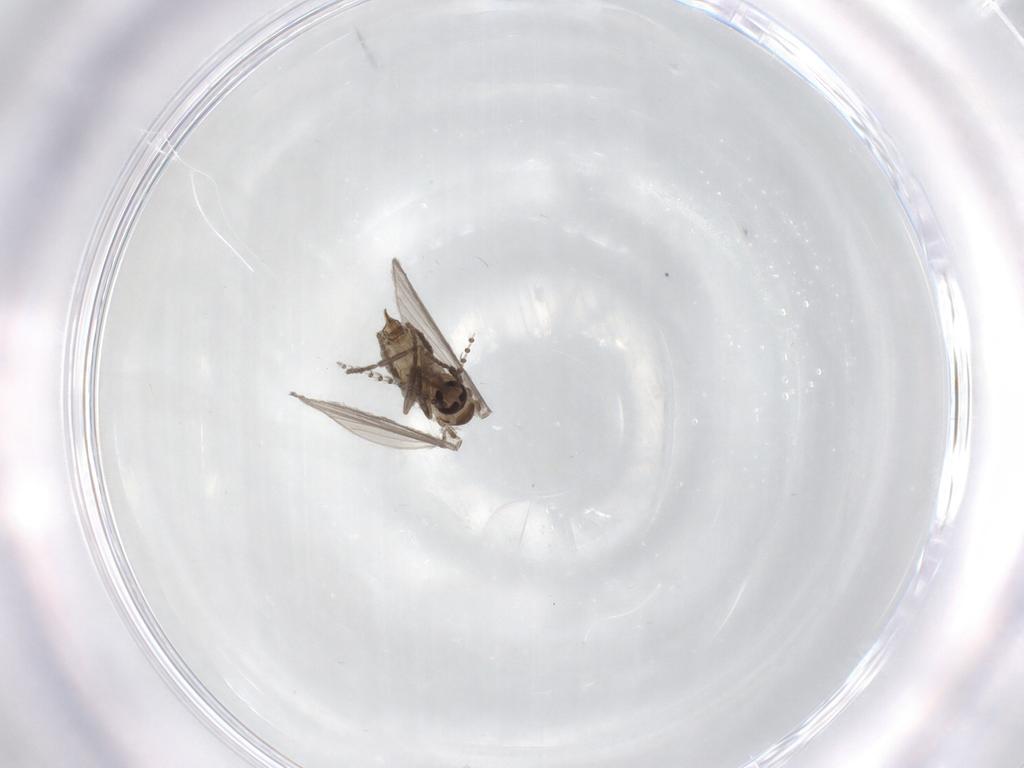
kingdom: Animalia
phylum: Arthropoda
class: Insecta
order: Diptera
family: Psychodidae
